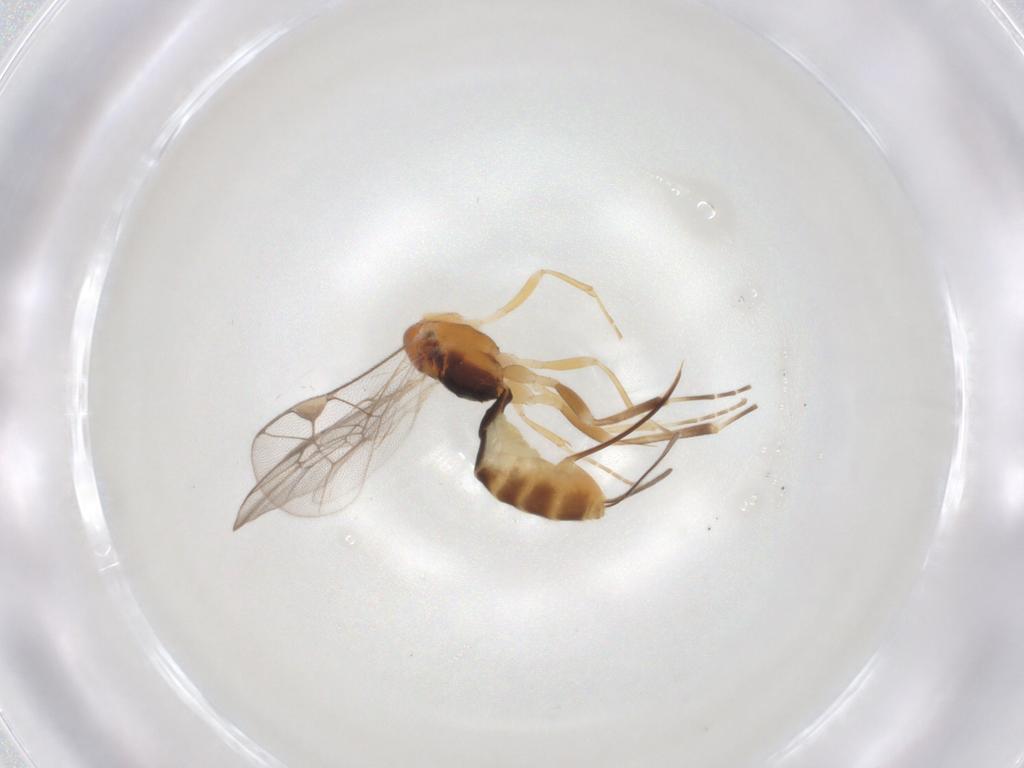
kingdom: Animalia
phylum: Arthropoda
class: Insecta
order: Hymenoptera
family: Ichneumonidae
